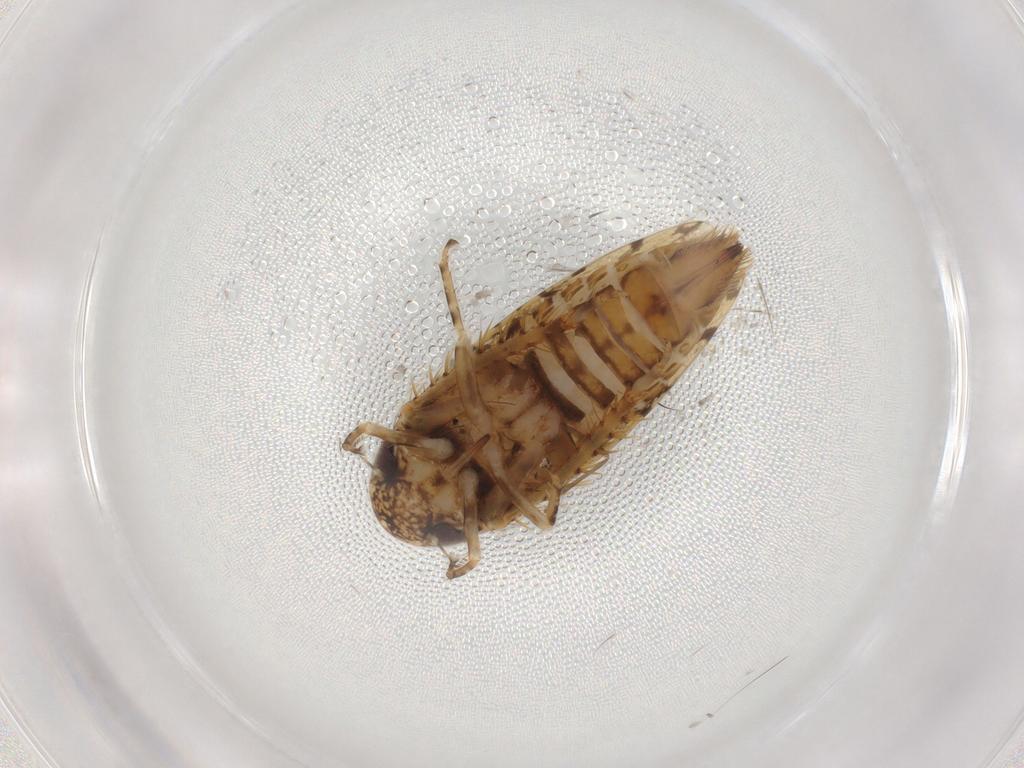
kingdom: Animalia
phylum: Arthropoda
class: Insecta
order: Hemiptera
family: Cicadellidae
